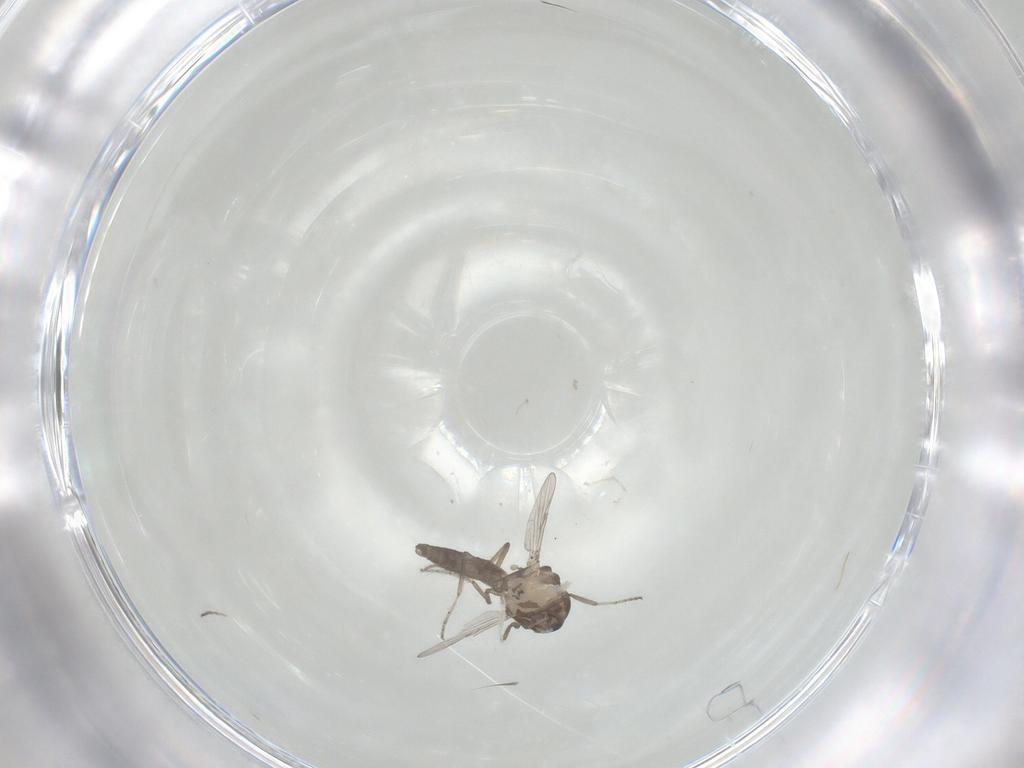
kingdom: Animalia
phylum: Arthropoda
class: Insecta
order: Diptera
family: Ceratopogonidae
